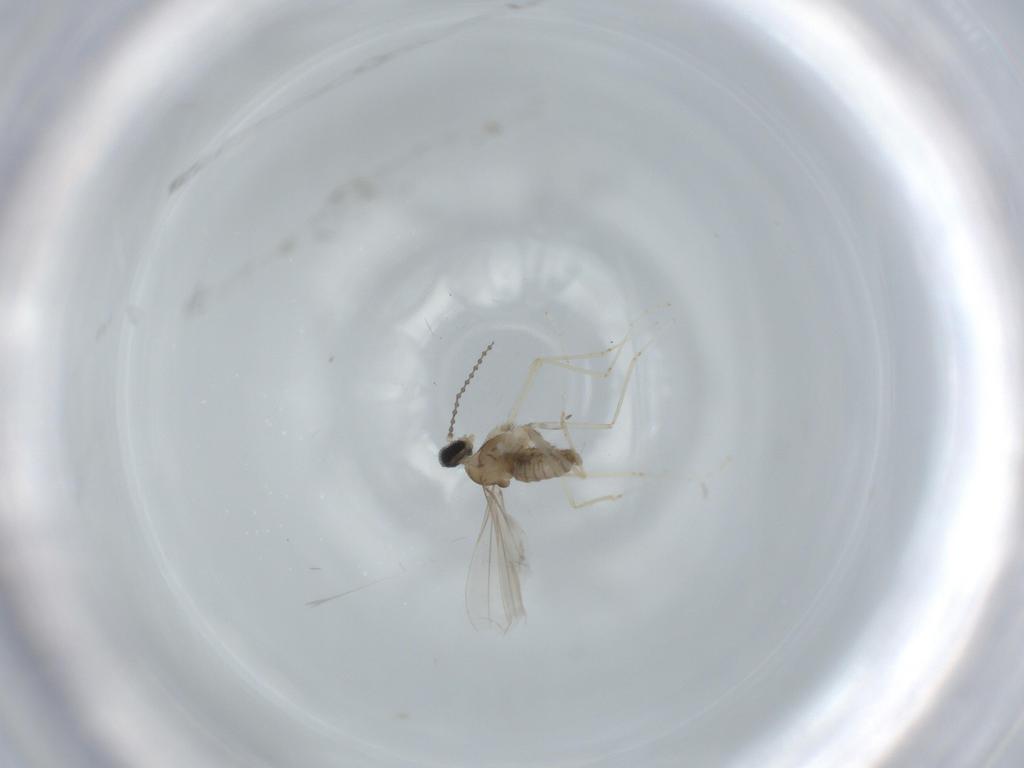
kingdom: Animalia
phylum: Arthropoda
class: Insecta
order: Diptera
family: Cecidomyiidae
